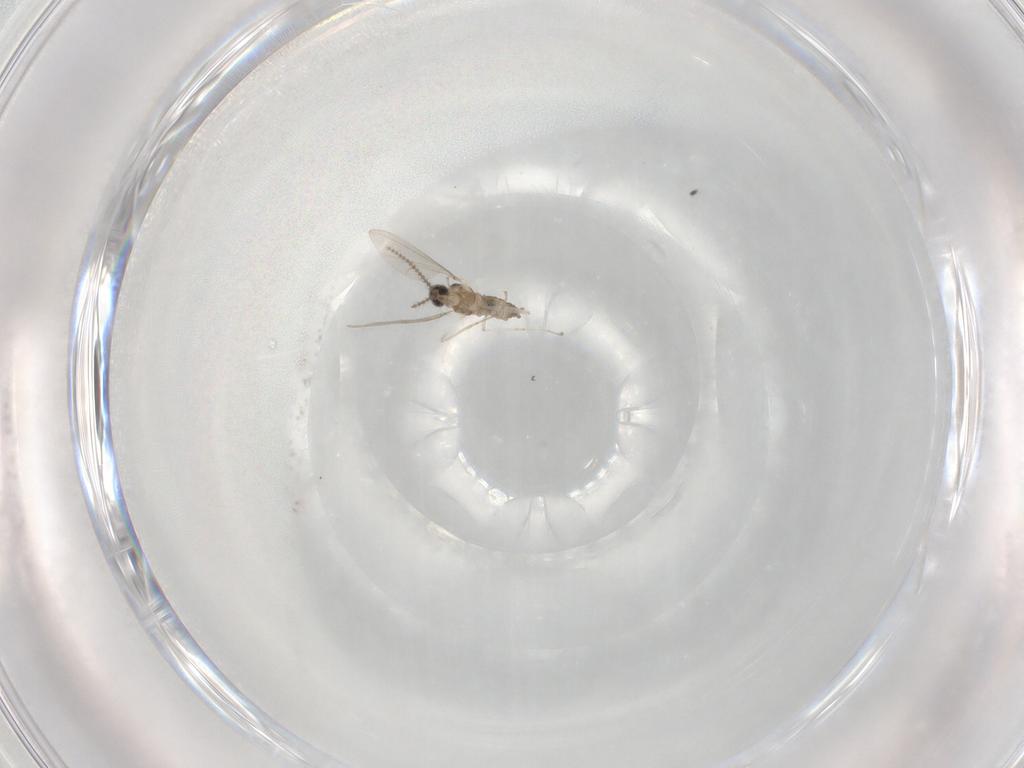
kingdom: Animalia
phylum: Arthropoda
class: Insecta
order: Diptera
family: Cecidomyiidae
